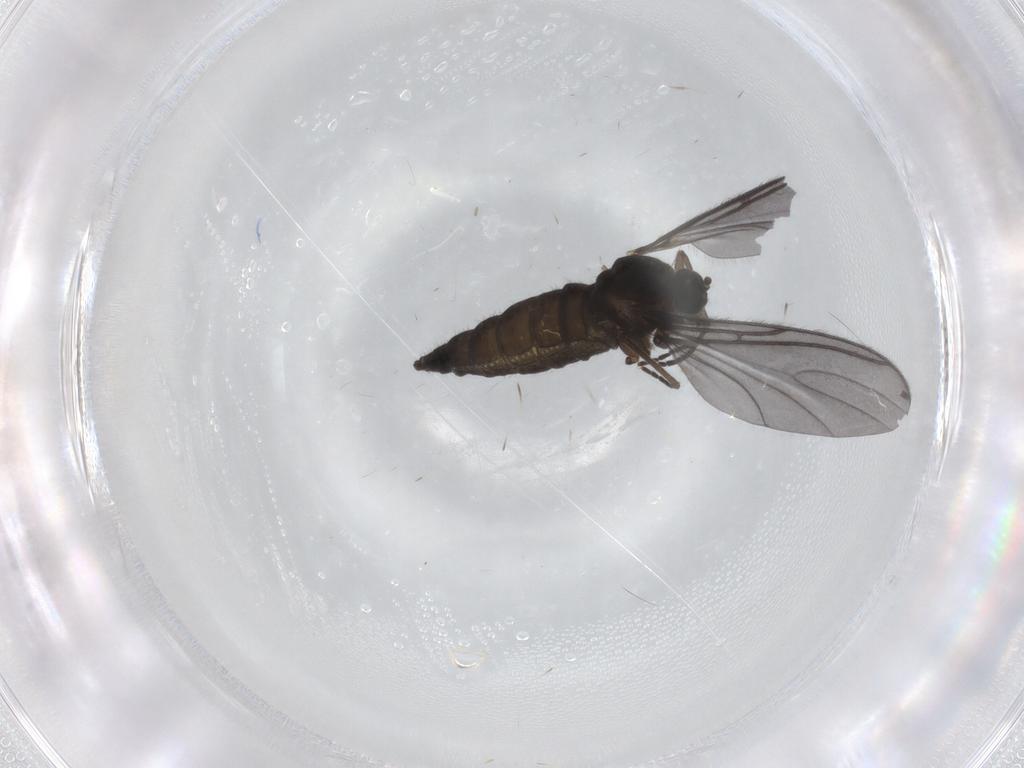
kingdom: Animalia
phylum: Arthropoda
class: Insecta
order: Diptera
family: Sciaridae
